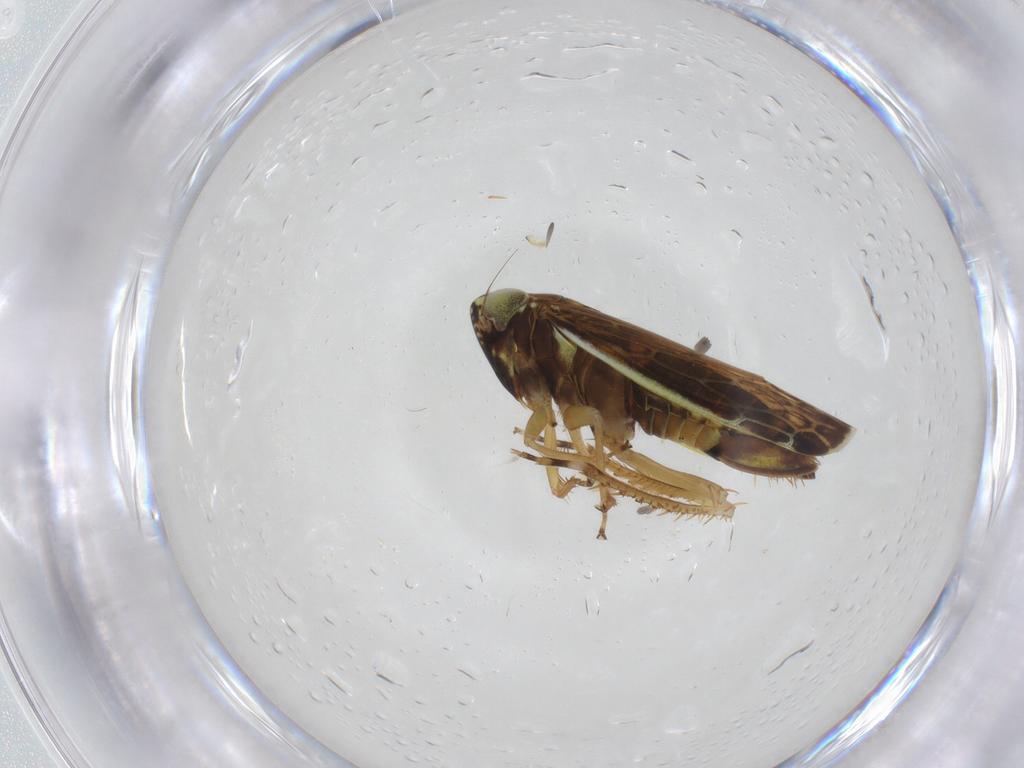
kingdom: Animalia
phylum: Arthropoda
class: Insecta
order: Hemiptera
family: Cicadellidae
